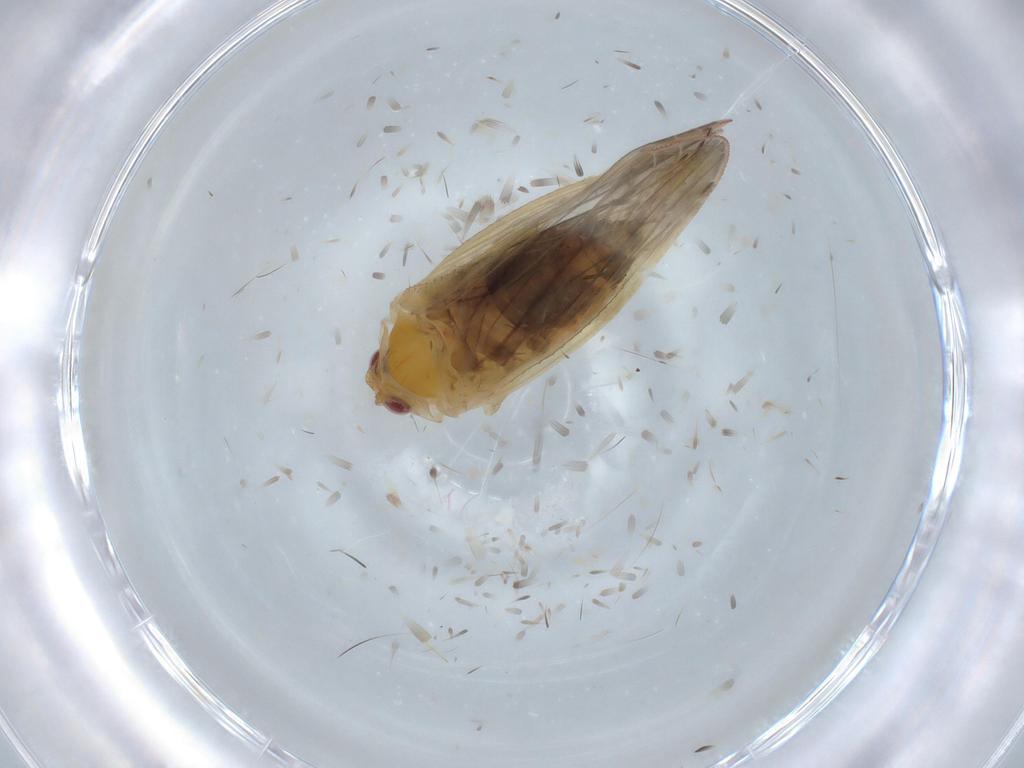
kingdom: Animalia
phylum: Arthropoda
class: Insecta
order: Hemiptera
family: Derbidae
